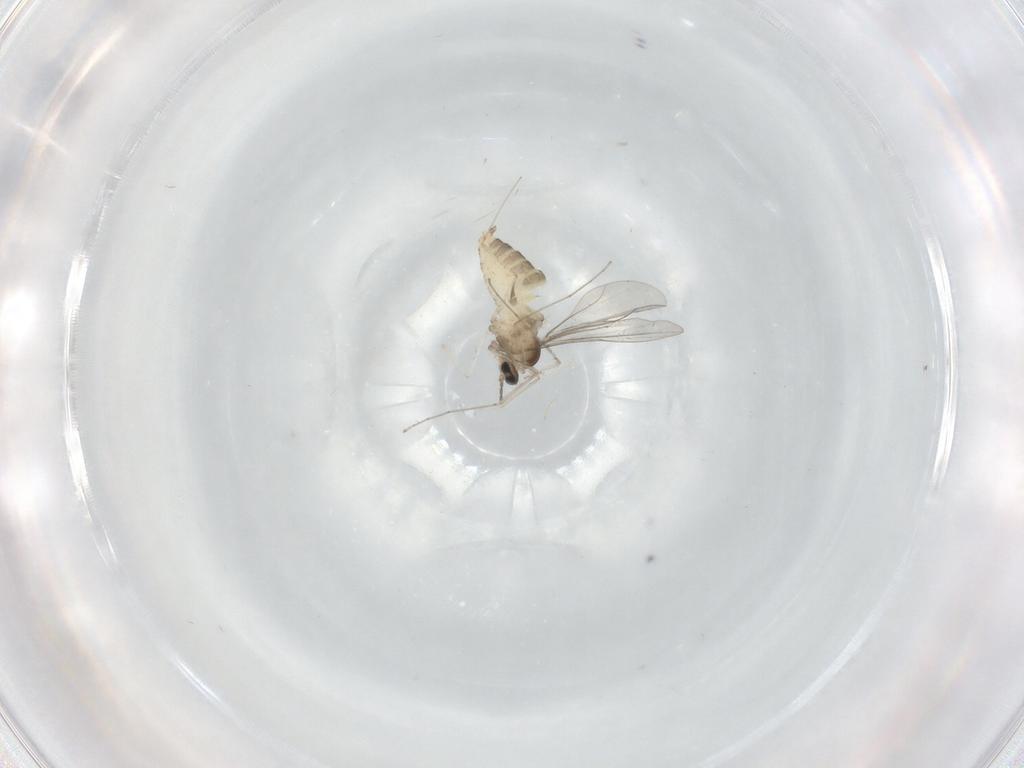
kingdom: Animalia
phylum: Arthropoda
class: Insecta
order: Diptera
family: Cecidomyiidae
